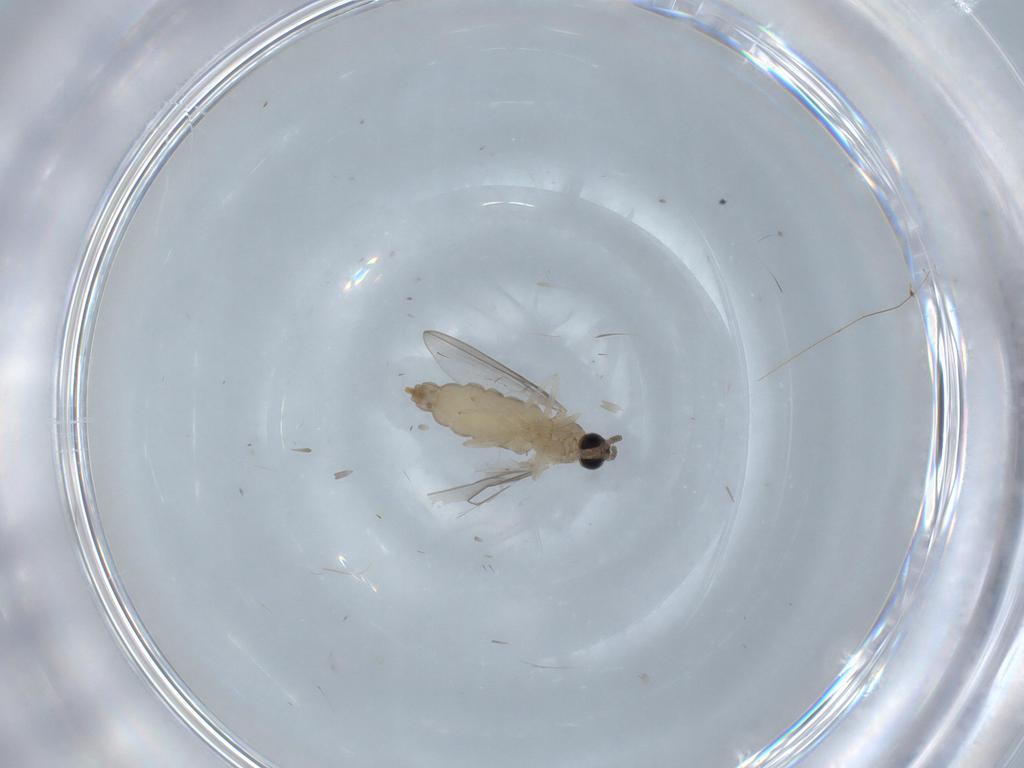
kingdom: Animalia
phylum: Arthropoda
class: Insecta
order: Diptera
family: Cecidomyiidae
